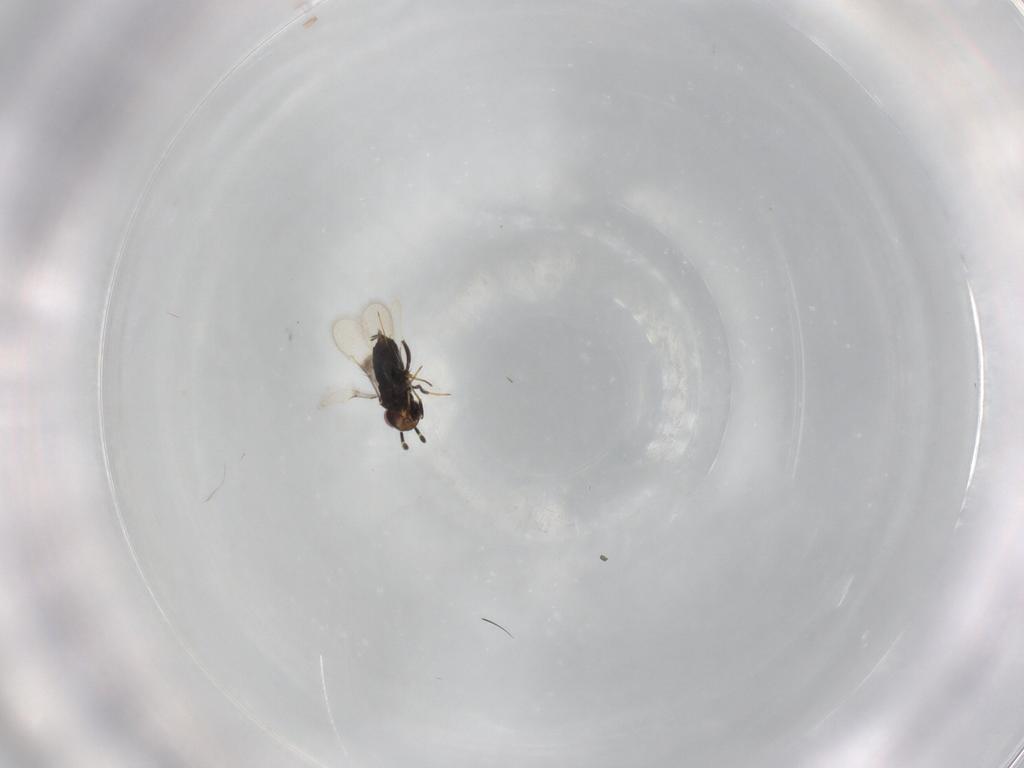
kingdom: Animalia
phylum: Arthropoda
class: Insecta
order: Hymenoptera
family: Azotidae
